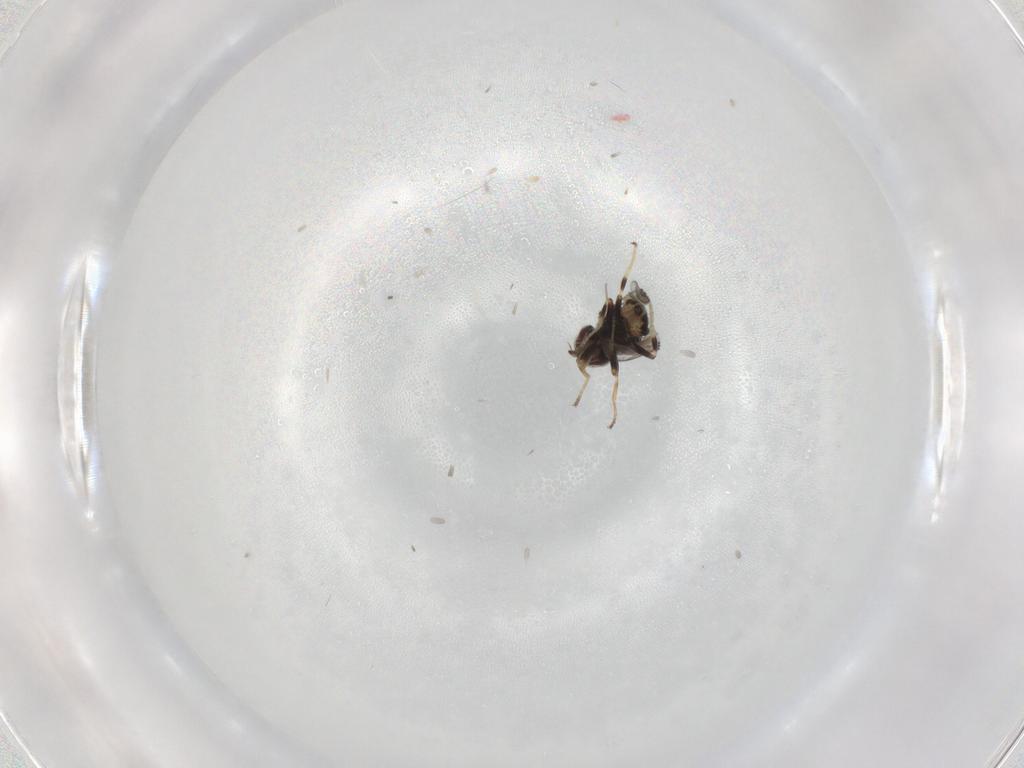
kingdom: Animalia
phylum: Arthropoda
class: Insecta
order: Diptera
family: Chloropidae
